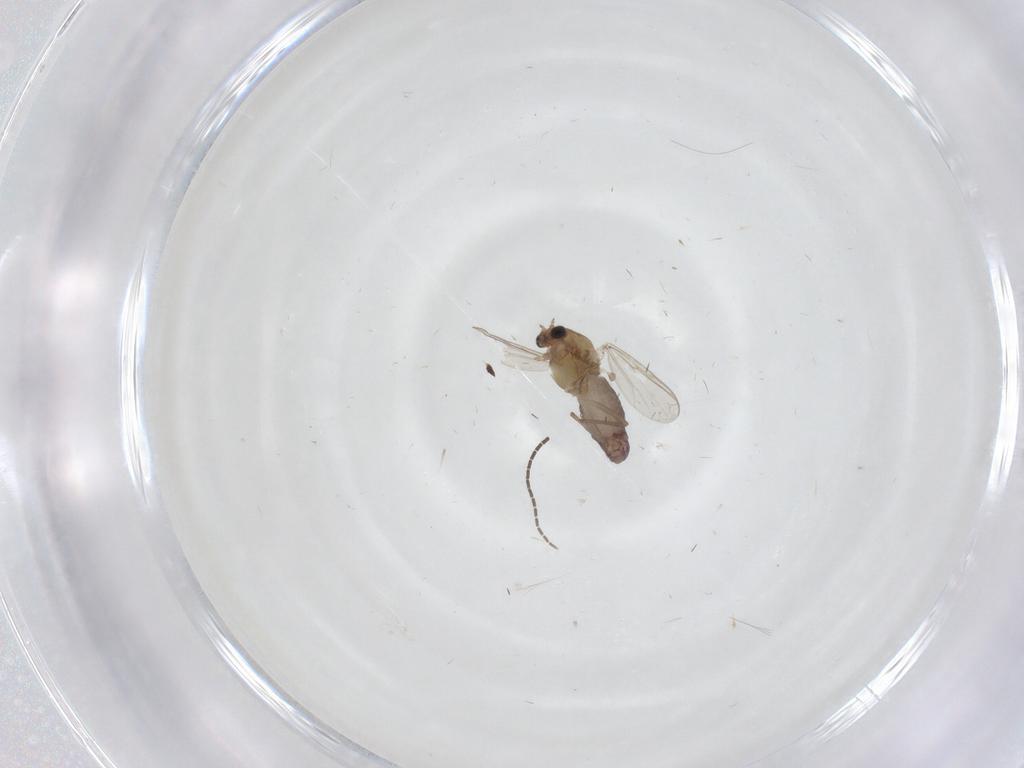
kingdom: Animalia
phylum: Arthropoda
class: Insecta
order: Diptera
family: Chironomidae
